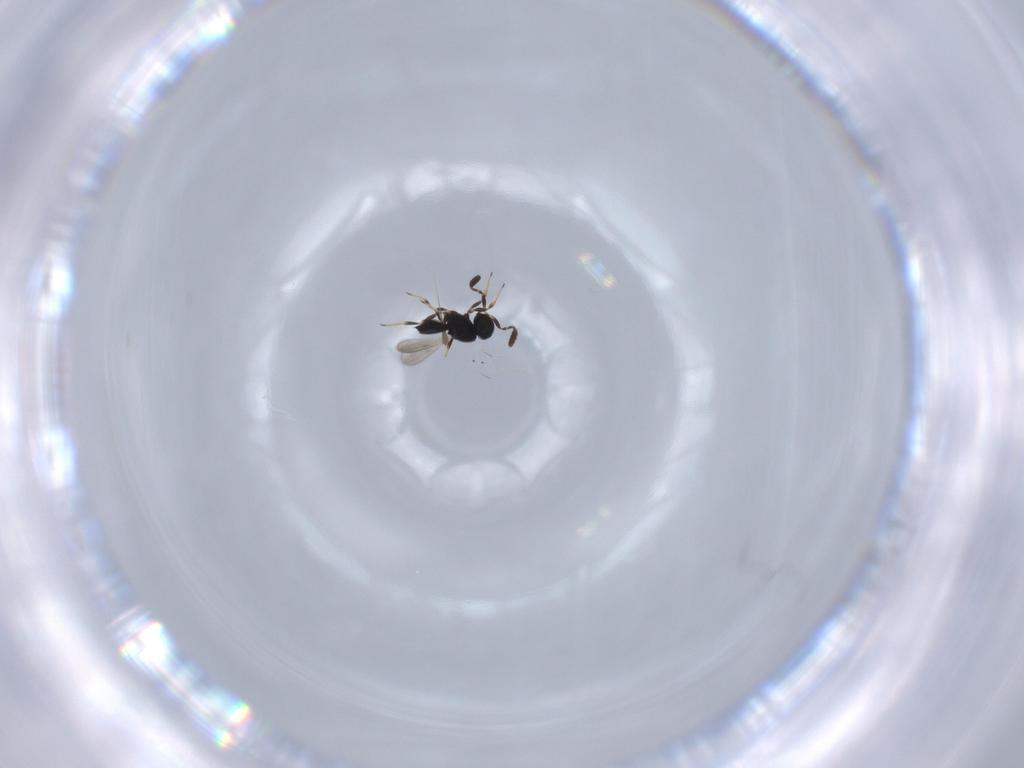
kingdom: Animalia
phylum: Arthropoda
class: Insecta
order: Hymenoptera
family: Scelionidae
